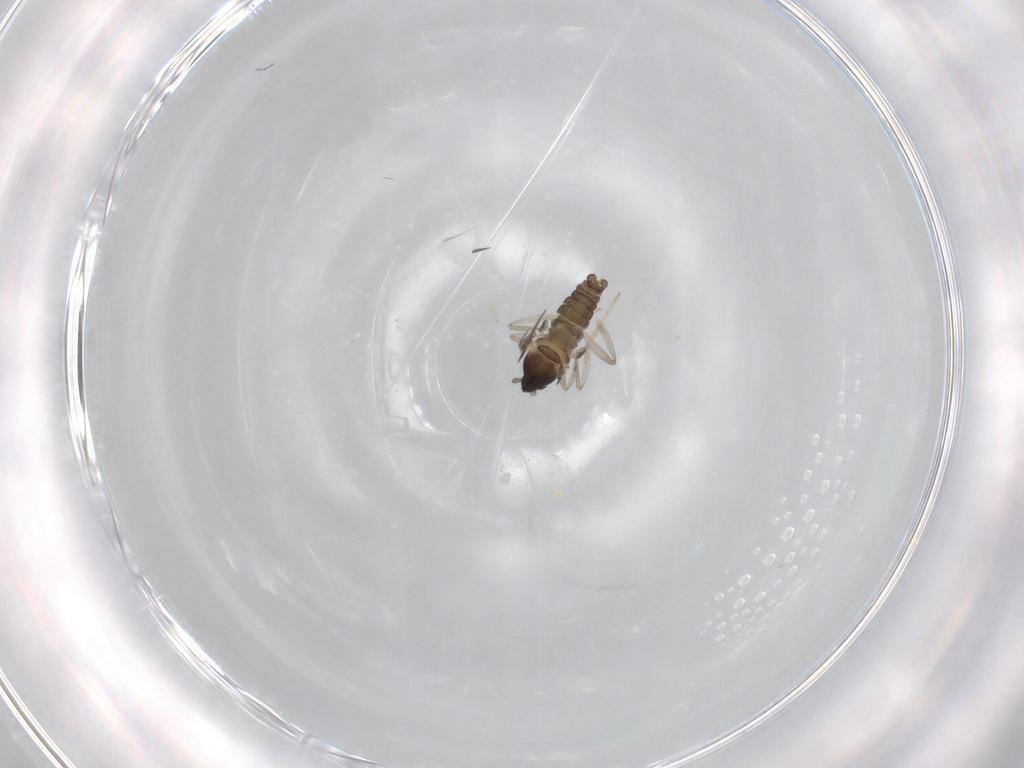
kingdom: Animalia
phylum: Arthropoda
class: Insecta
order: Diptera
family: Cecidomyiidae
